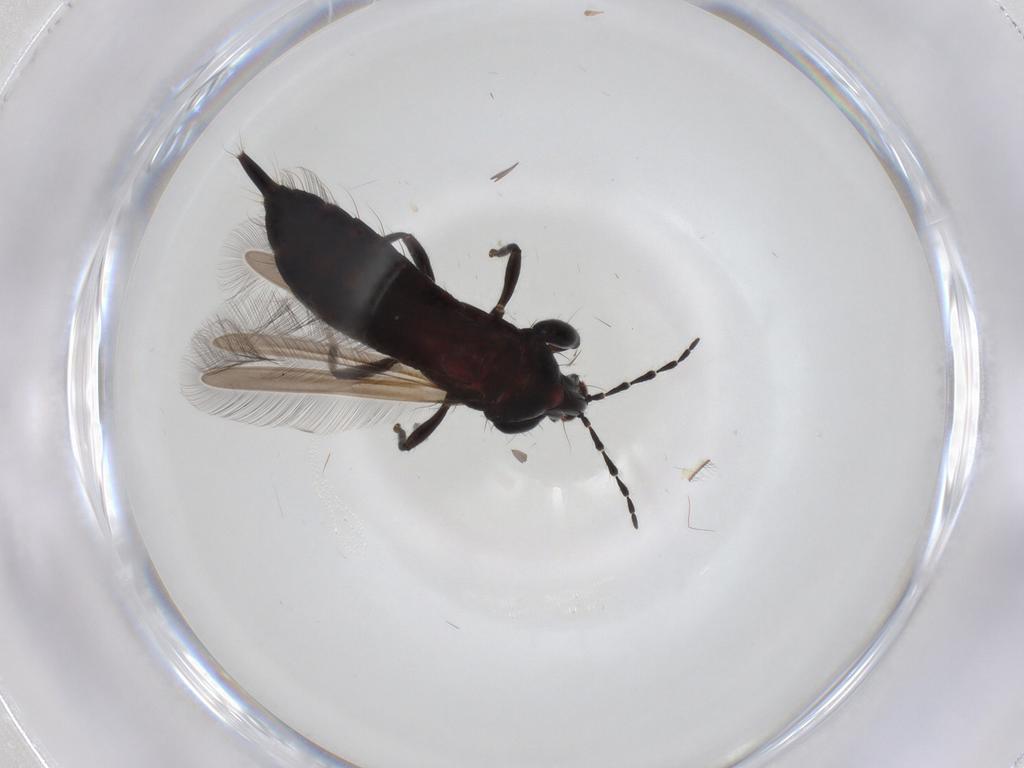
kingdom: Animalia
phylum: Arthropoda
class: Insecta
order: Thysanoptera
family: Phlaeothripidae
